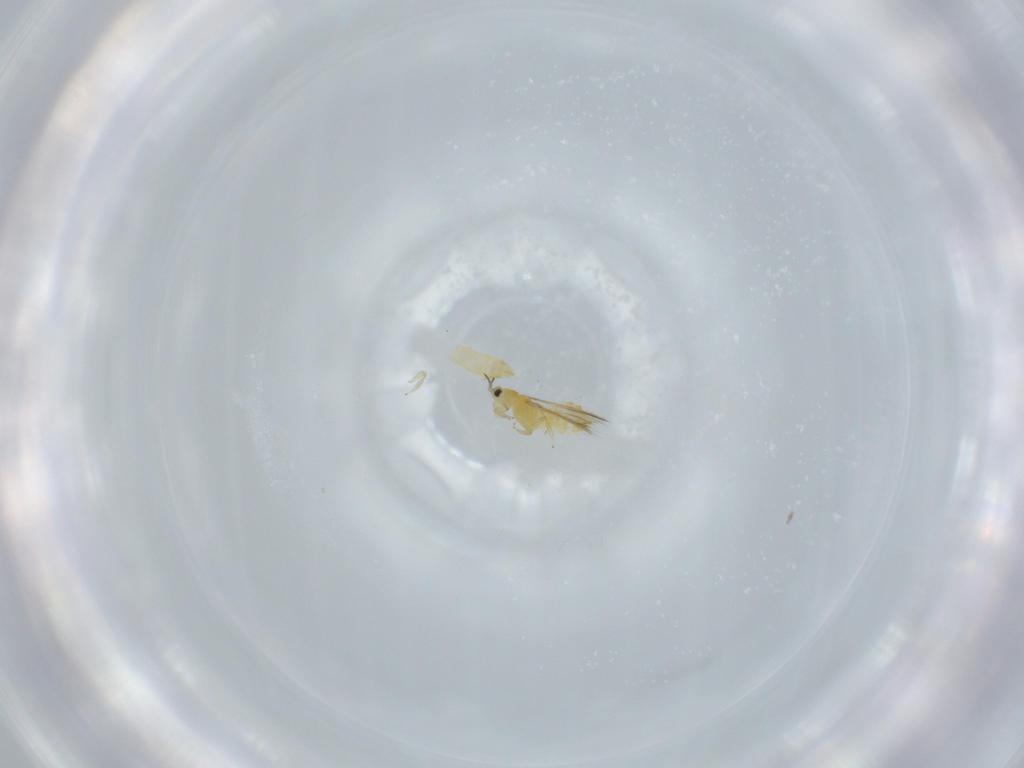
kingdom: Animalia
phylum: Arthropoda
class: Insecta
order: Thysanoptera
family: Thripidae
